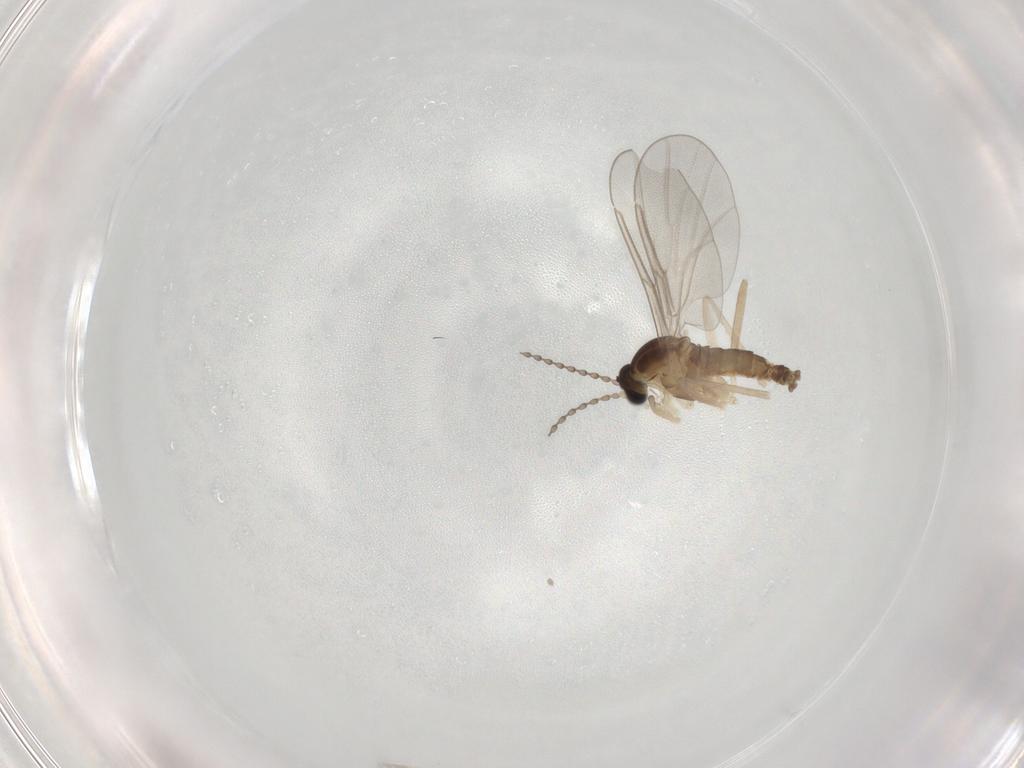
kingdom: Animalia
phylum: Arthropoda
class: Insecta
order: Diptera
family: Cecidomyiidae
